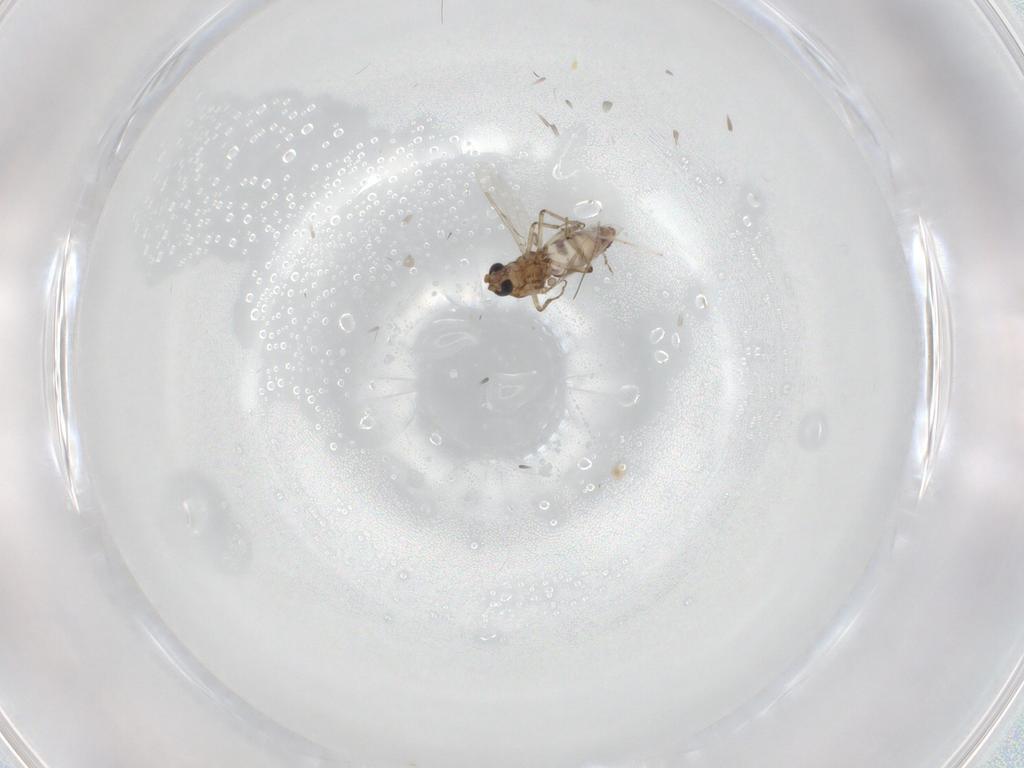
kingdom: Animalia
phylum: Arthropoda
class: Insecta
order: Diptera
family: Ceratopogonidae
